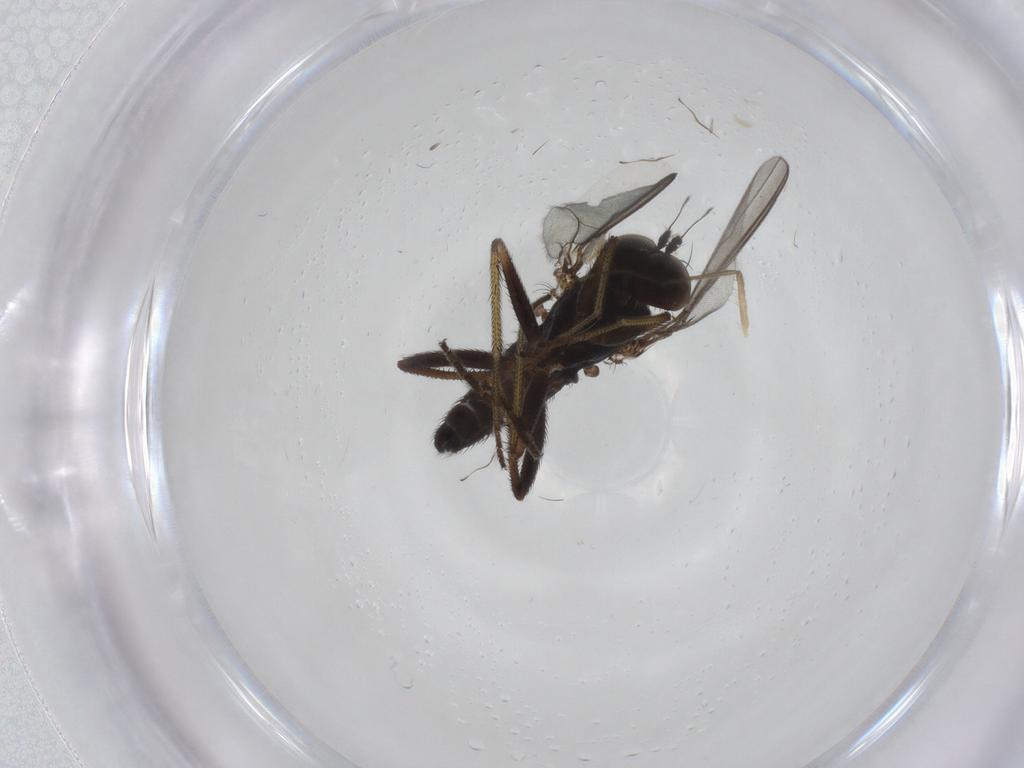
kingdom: Animalia
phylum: Arthropoda
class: Insecta
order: Diptera
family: Dolichopodidae
